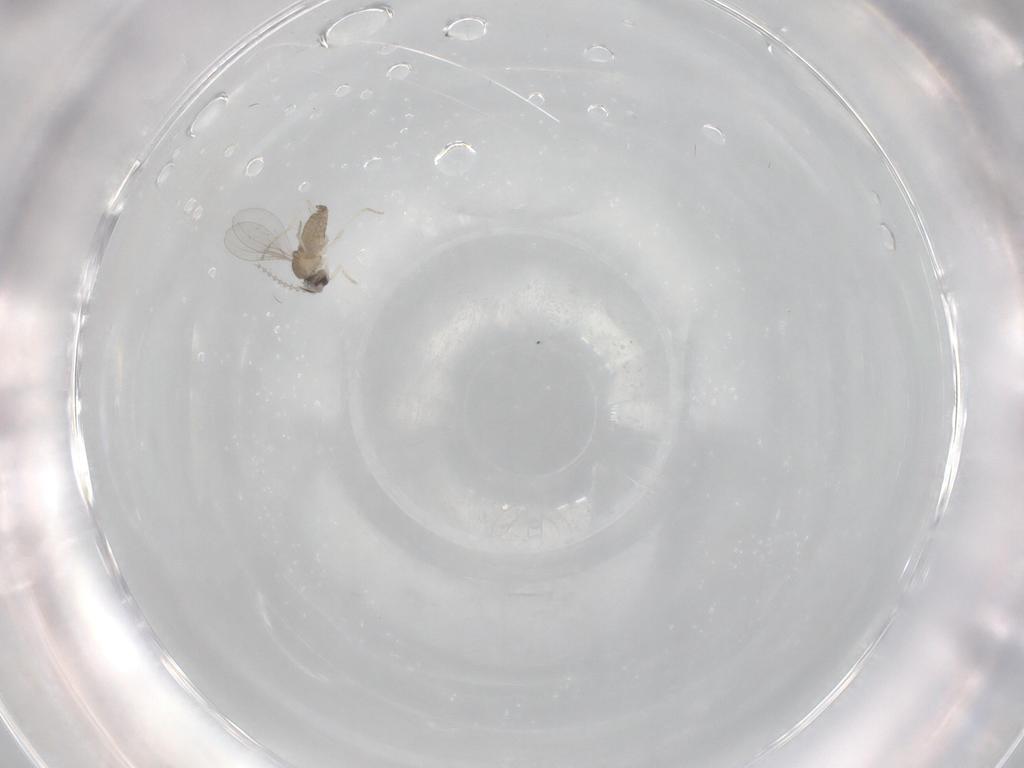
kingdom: Animalia
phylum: Arthropoda
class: Insecta
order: Diptera
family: Cecidomyiidae
